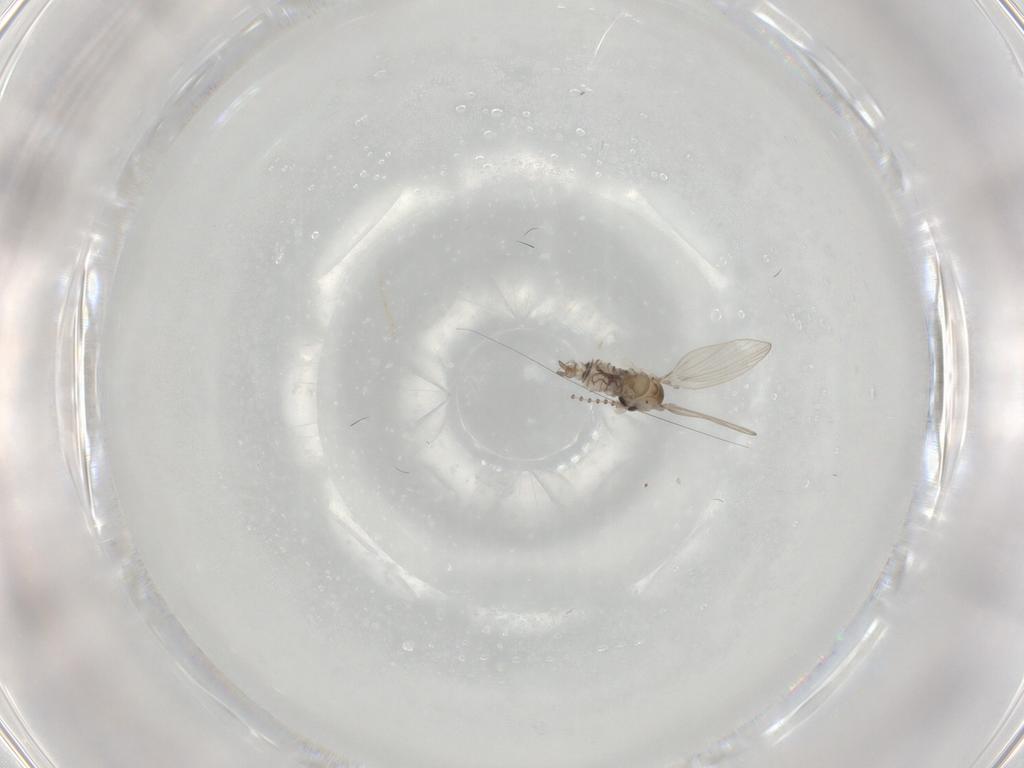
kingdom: Animalia
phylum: Arthropoda
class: Insecta
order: Diptera
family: Psychodidae
